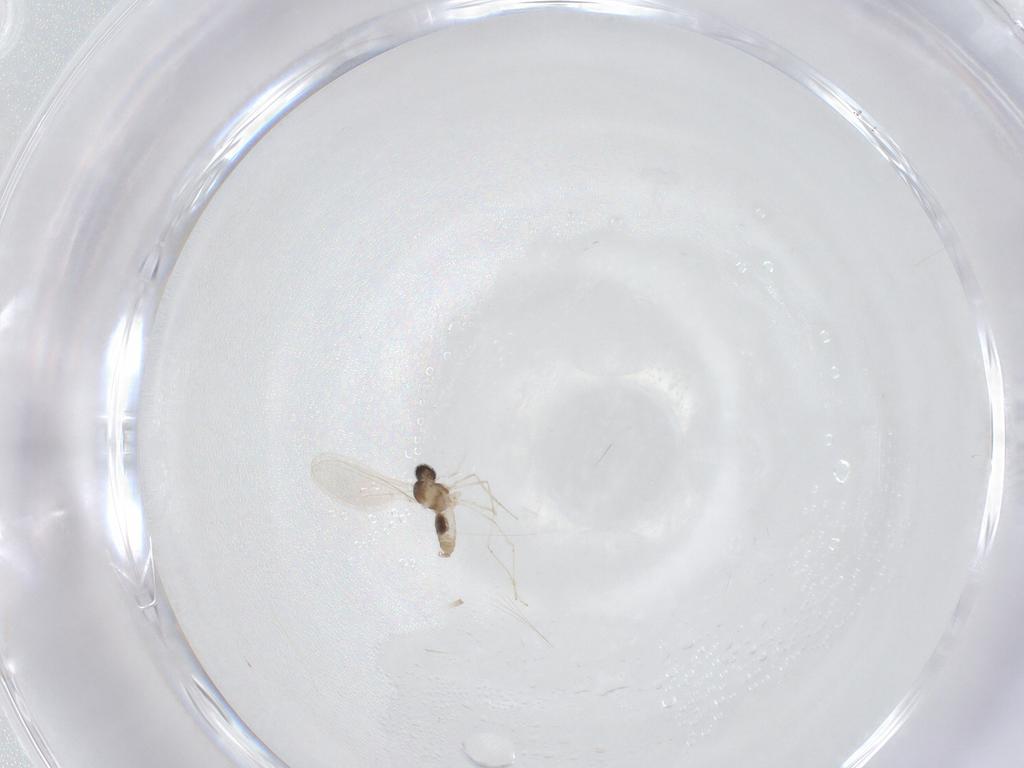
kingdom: Animalia
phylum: Arthropoda
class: Insecta
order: Diptera
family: Cecidomyiidae
